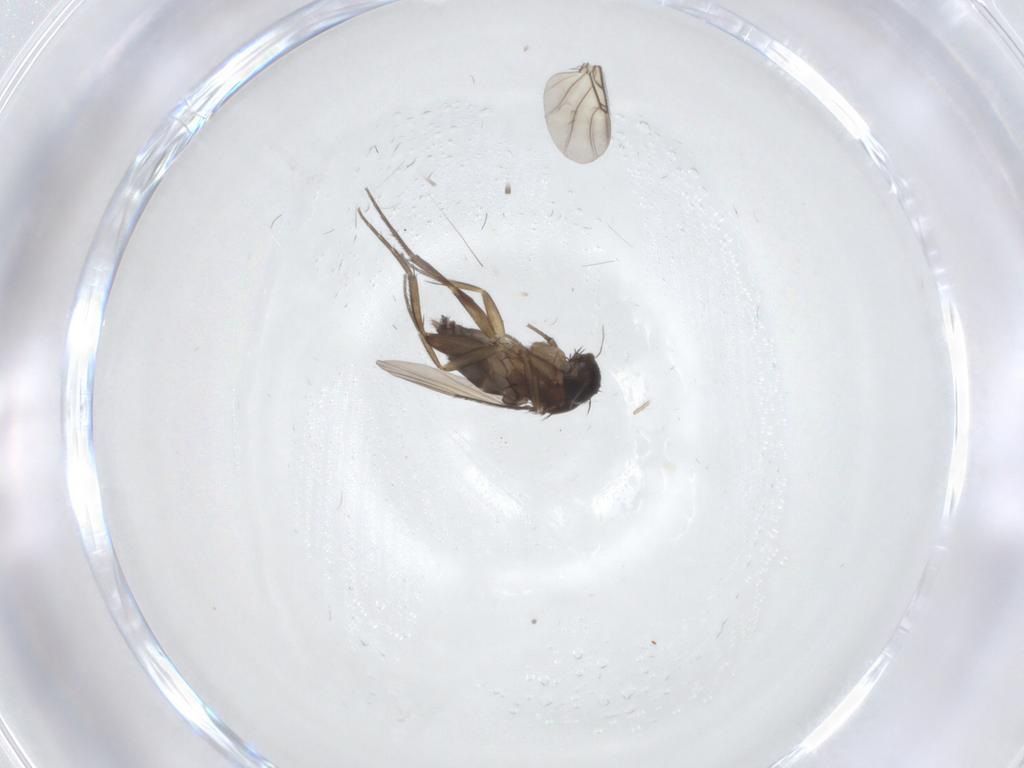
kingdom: Animalia
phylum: Arthropoda
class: Insecta
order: Diptera
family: Phoridae
